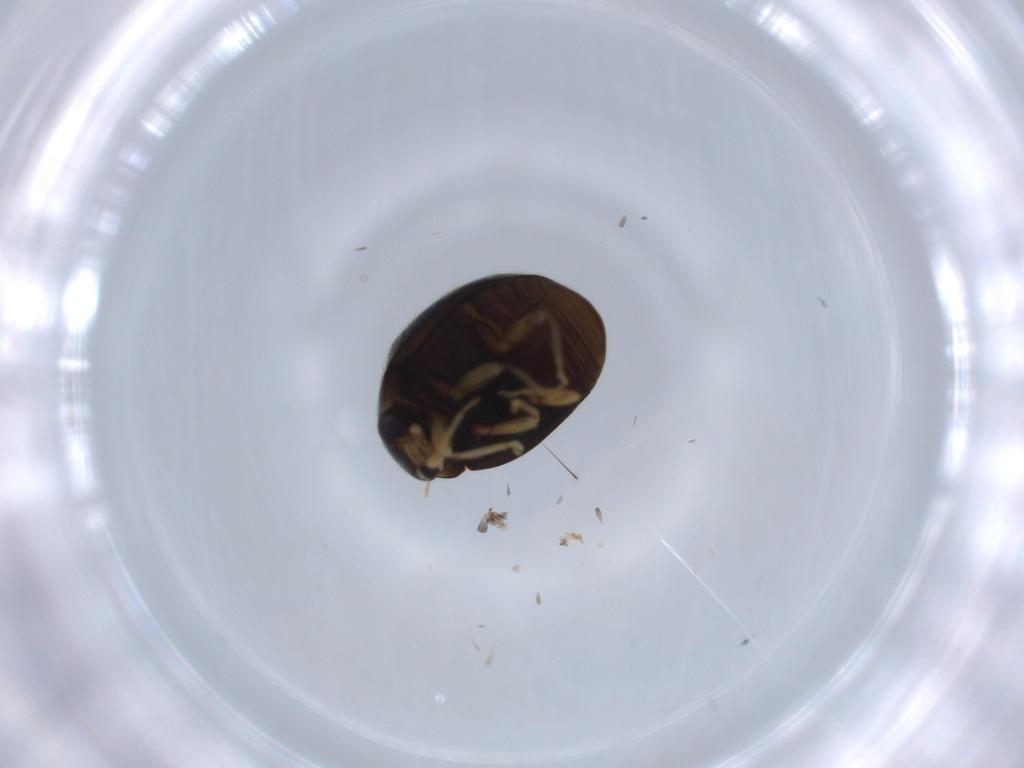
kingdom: Animalia
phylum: Arthropoda
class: Insecta
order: Coleoptera
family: Coccinellidae
